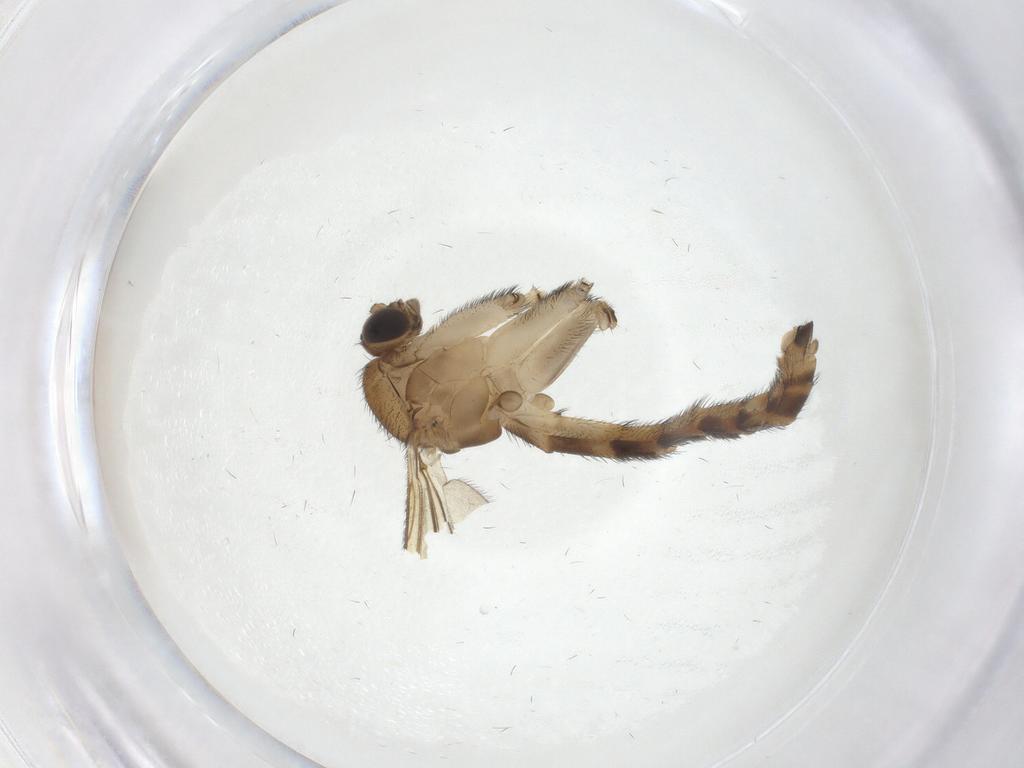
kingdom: Animalia
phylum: Arthropoda
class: Insecta
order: Diptera
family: Keroplatidae
